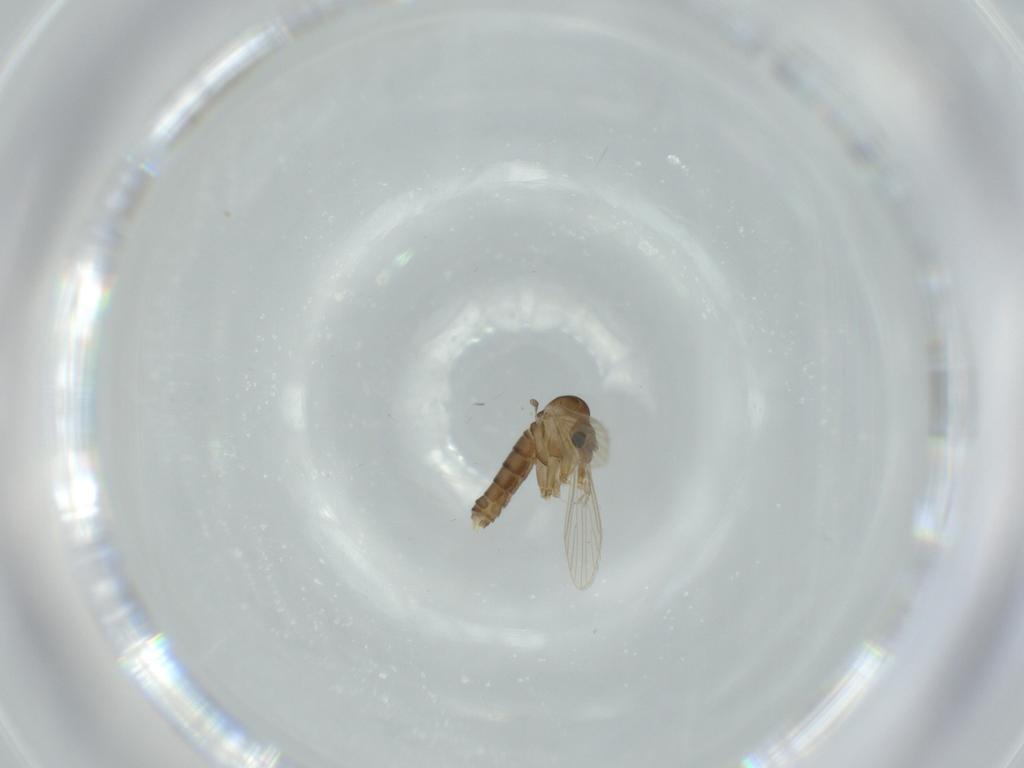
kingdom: Animalia
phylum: Arthropoda
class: Insecta
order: Diptera
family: Psychodidae
